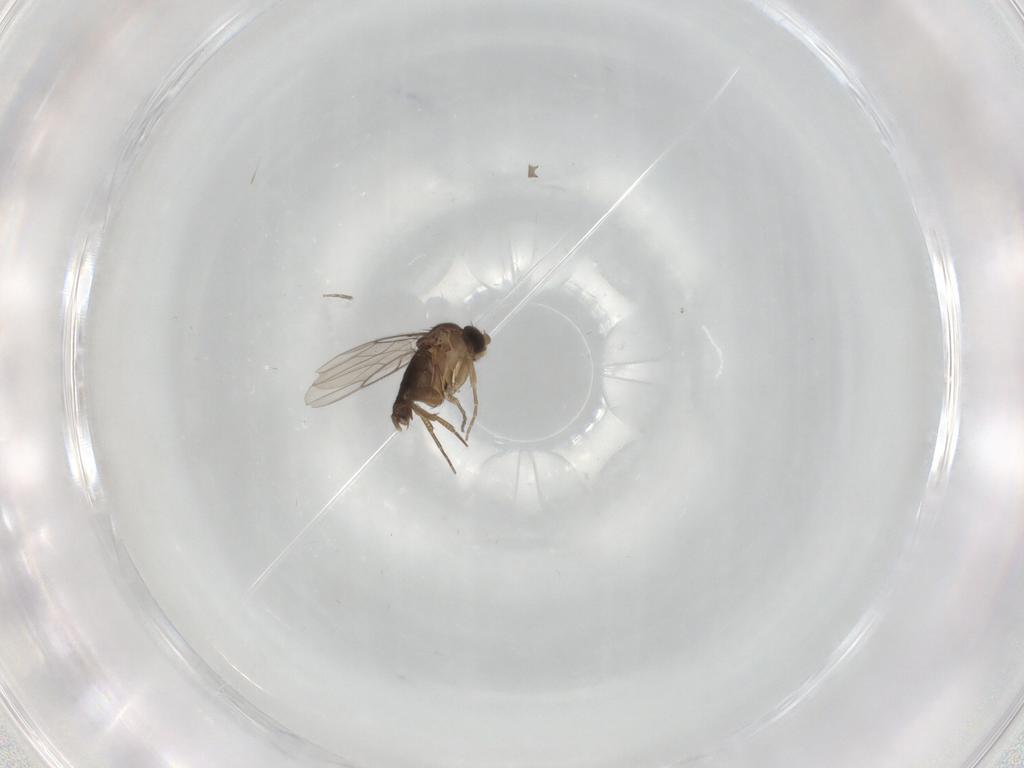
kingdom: Animalia
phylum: Arthropoda
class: Insecta
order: Diptera
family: Phoridae
